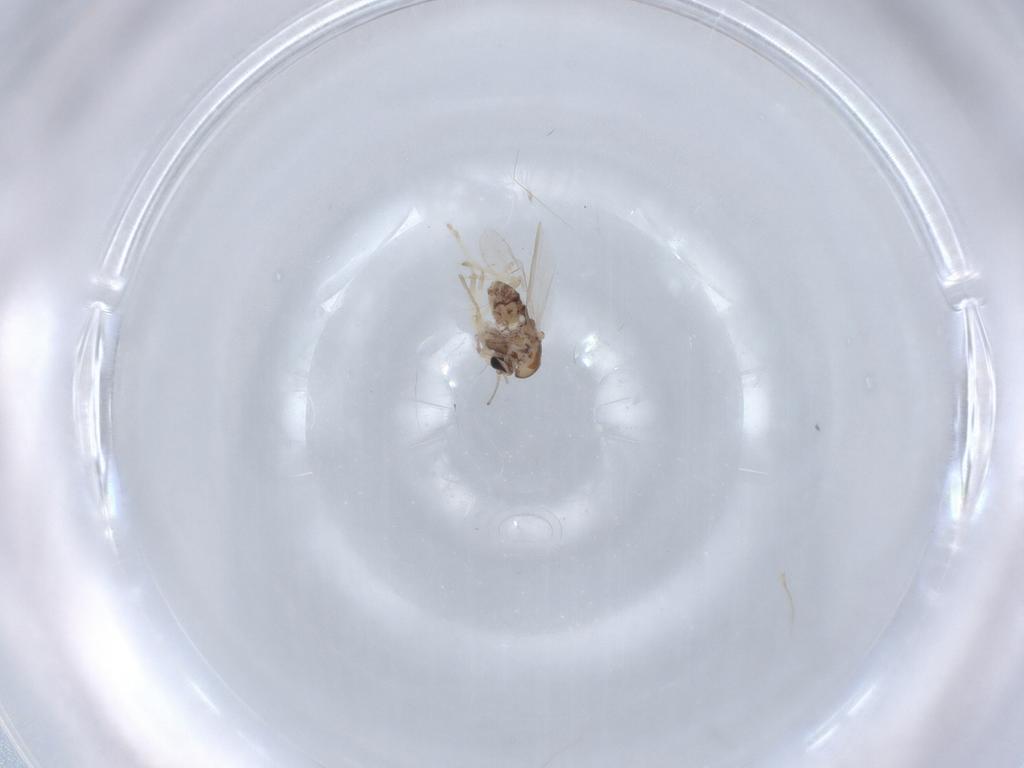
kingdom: Animalia
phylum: Arthropoda
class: Insecta
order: Diptera
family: Chironomidae
